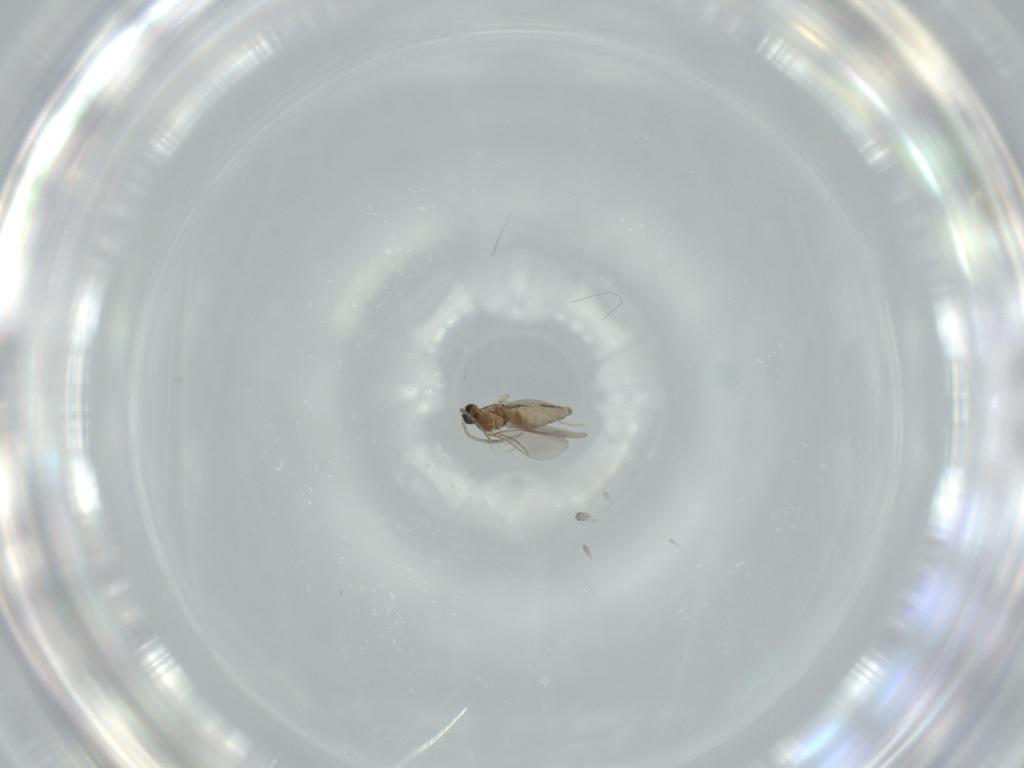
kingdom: Animalia
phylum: Arthropoda
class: Insecta
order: Diptera
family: Cecidomyiidae
